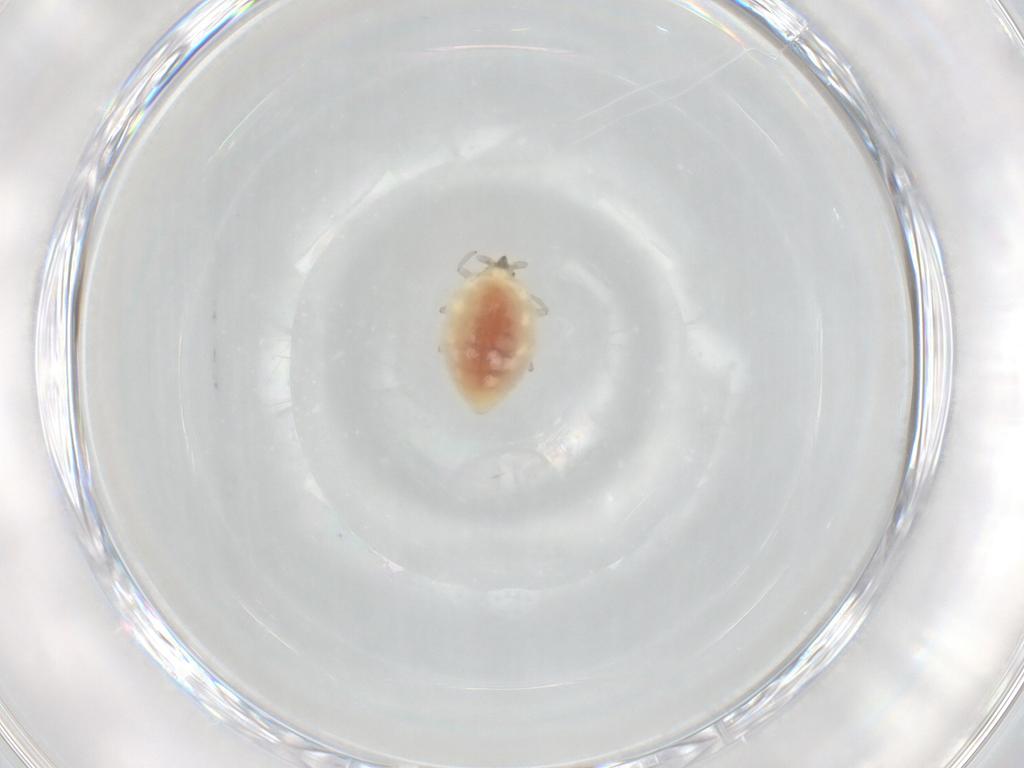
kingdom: Animalia
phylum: Arthropoda
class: Insecta
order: Neuroptera
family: Coniopterygidae
